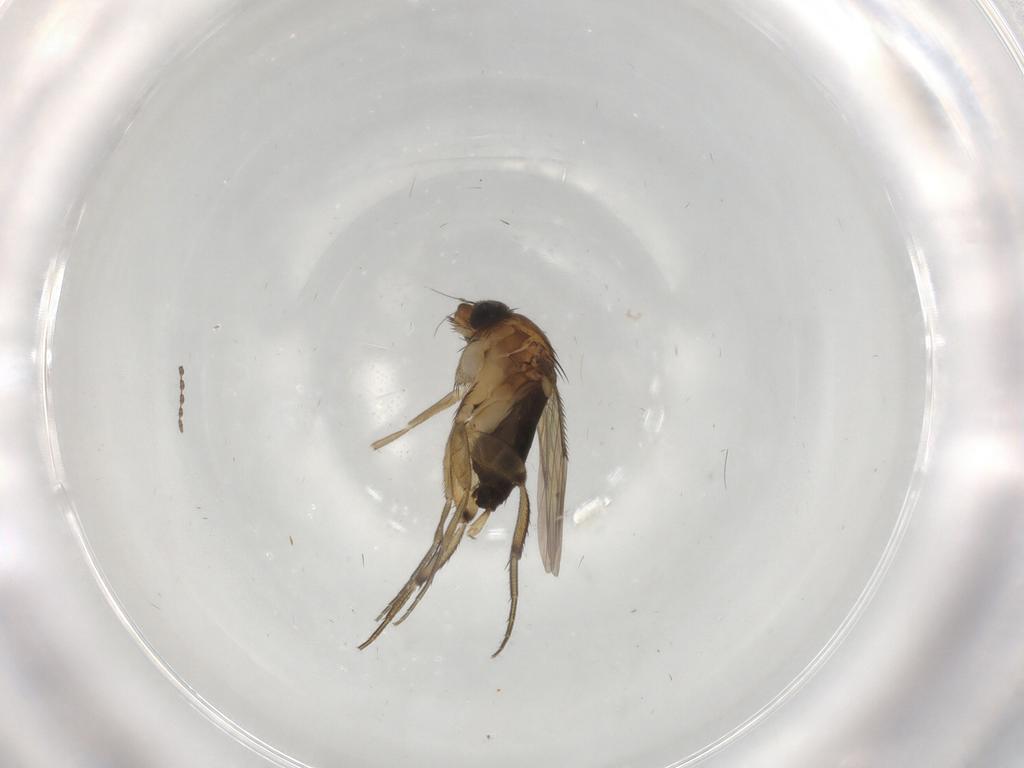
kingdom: Animalia
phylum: Arthropoda
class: Insecta
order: Diptera
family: Cecidomyiidae
